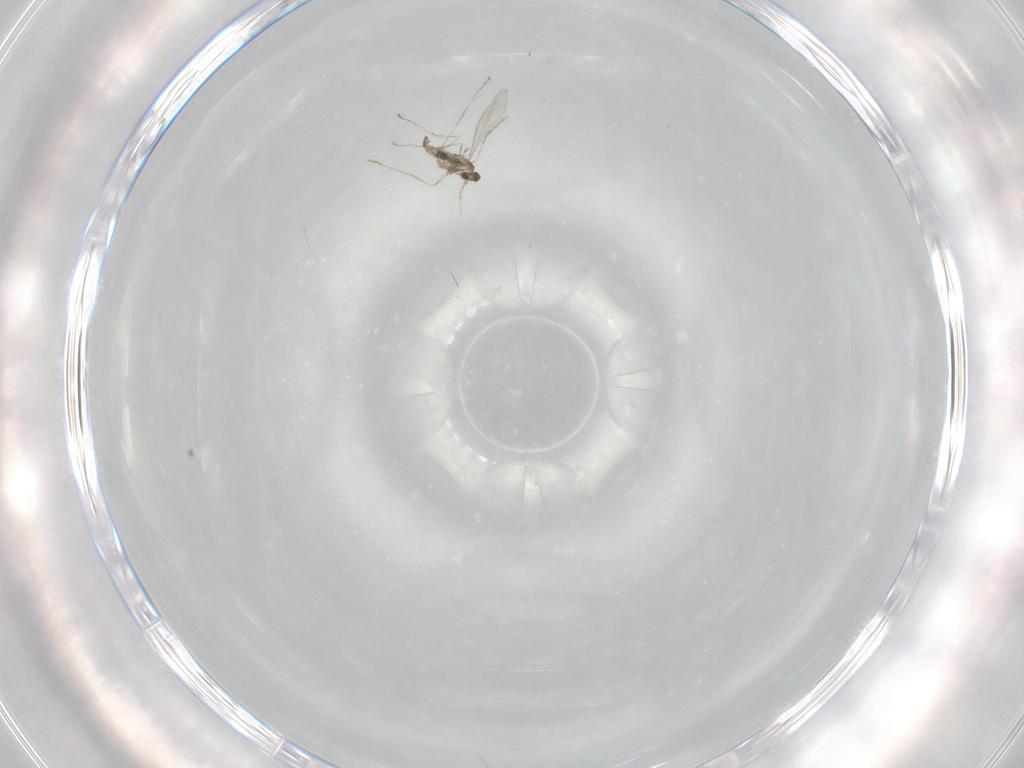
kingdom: Animalia
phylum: Arthropoda
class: Insecta
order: Diptera
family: Cecidomyiidae
